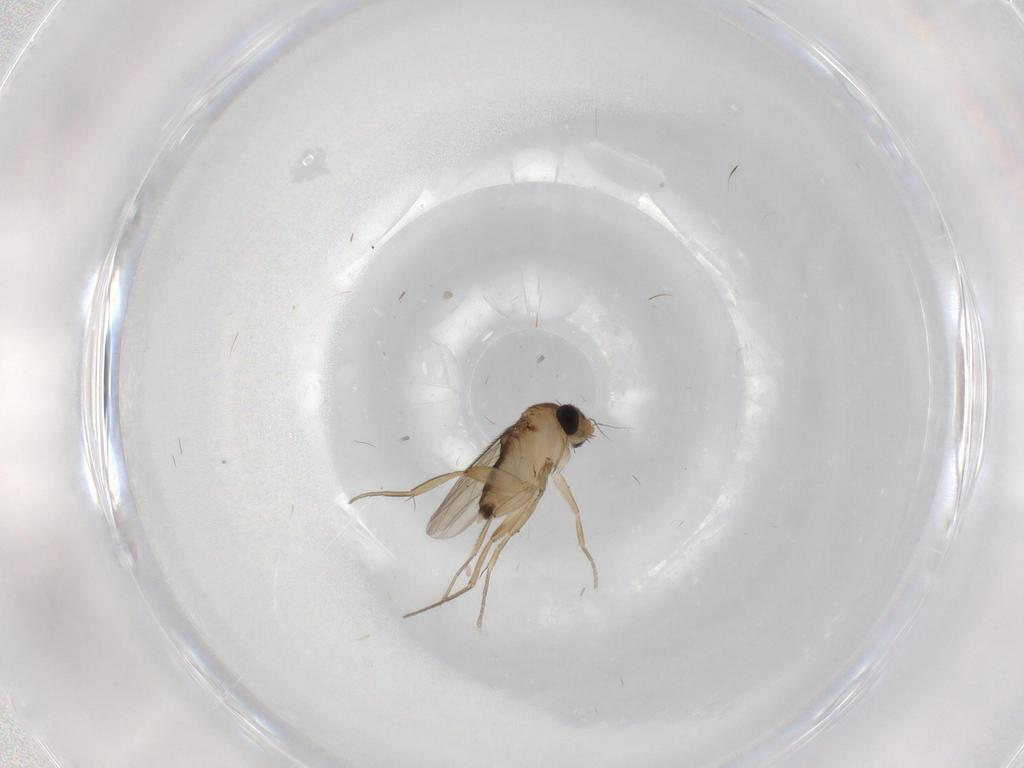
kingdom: Animalia
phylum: Arthropoda
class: Insecta
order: Diptera
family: Phoridae
